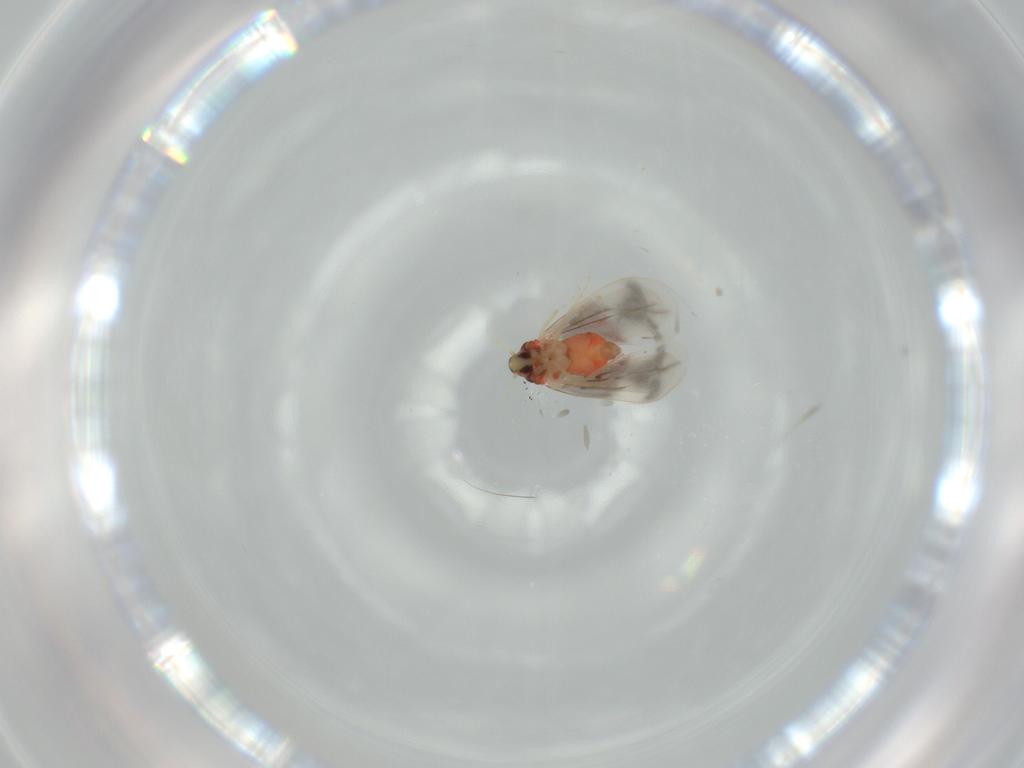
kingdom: Animalia
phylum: Arthropoda
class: Insecta
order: Hemiptera
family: Aleyrodidae
